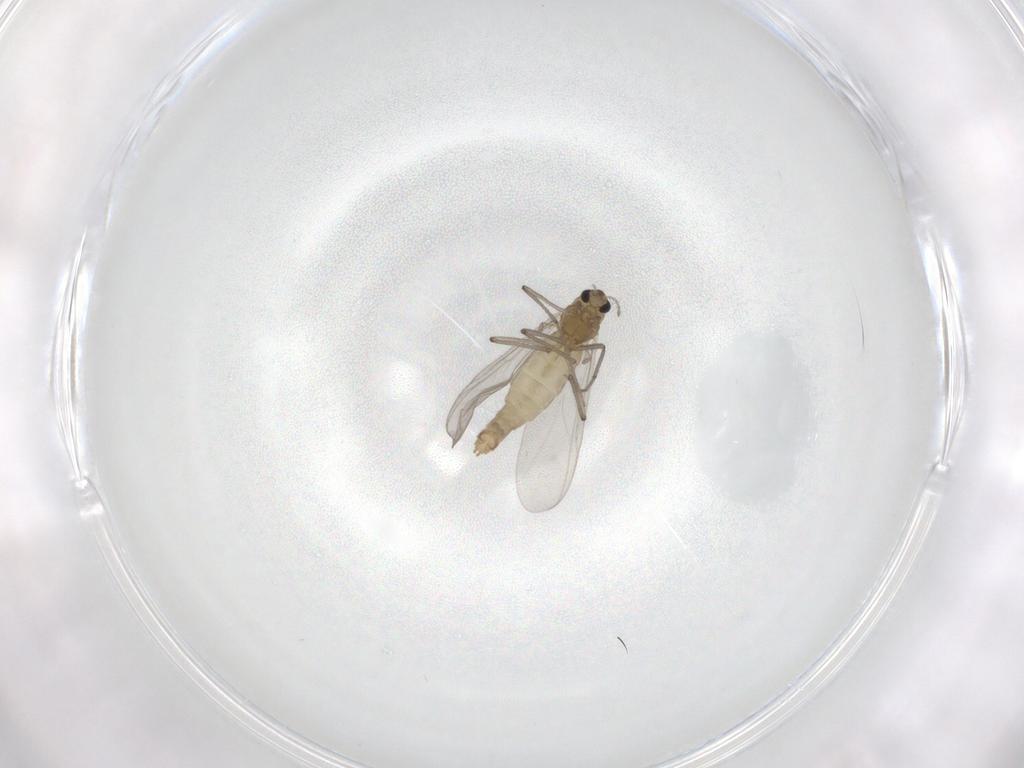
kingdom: Animalia
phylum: Arthropoda
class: Insecta
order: Diptera
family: Chironomidae
